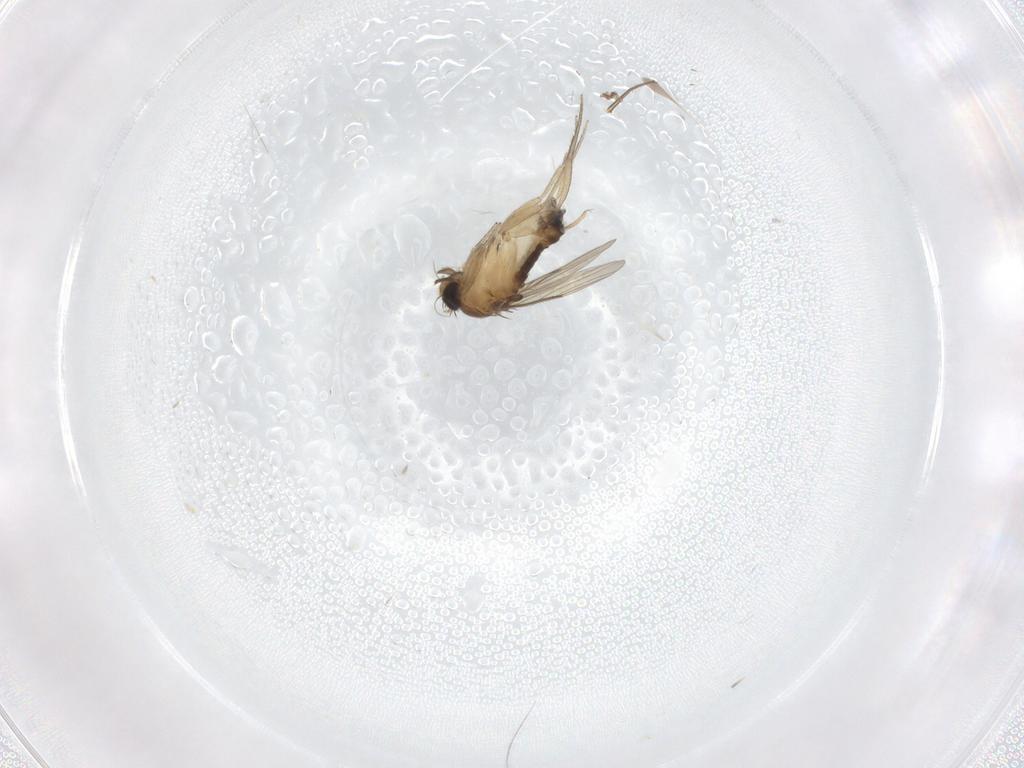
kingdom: Animalia
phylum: Arthropoda
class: Insecta
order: Diptera
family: Phoridae
